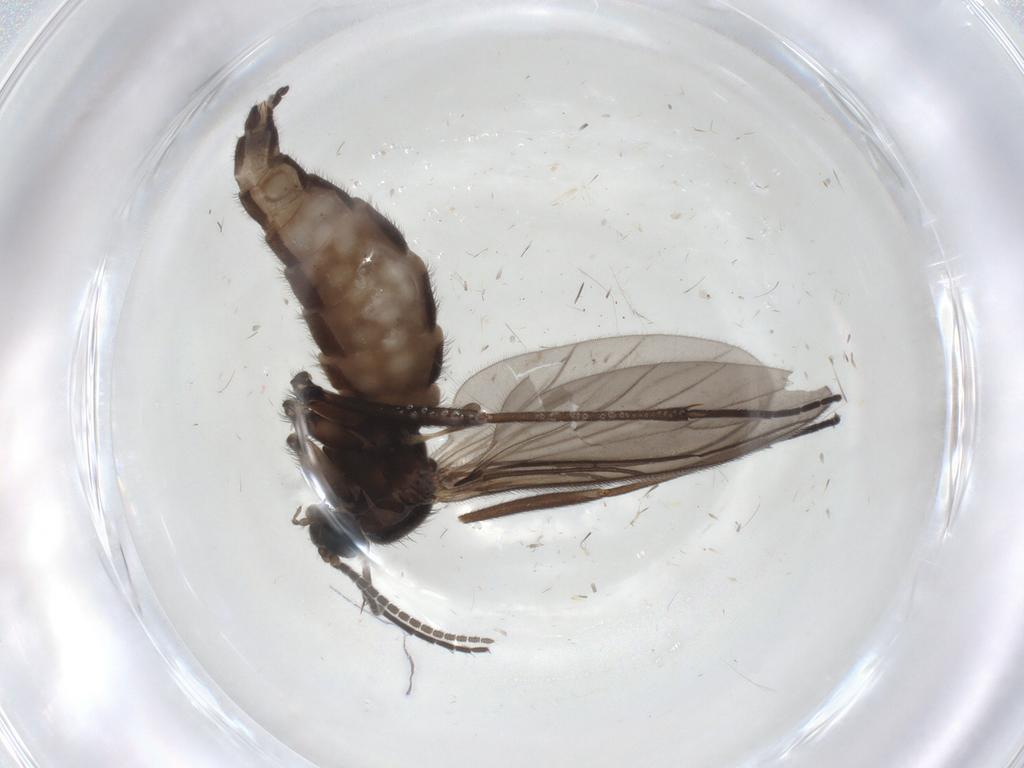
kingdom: Animalia
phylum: Arthropoda
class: Insecta
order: Diptera
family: Sciaridae
